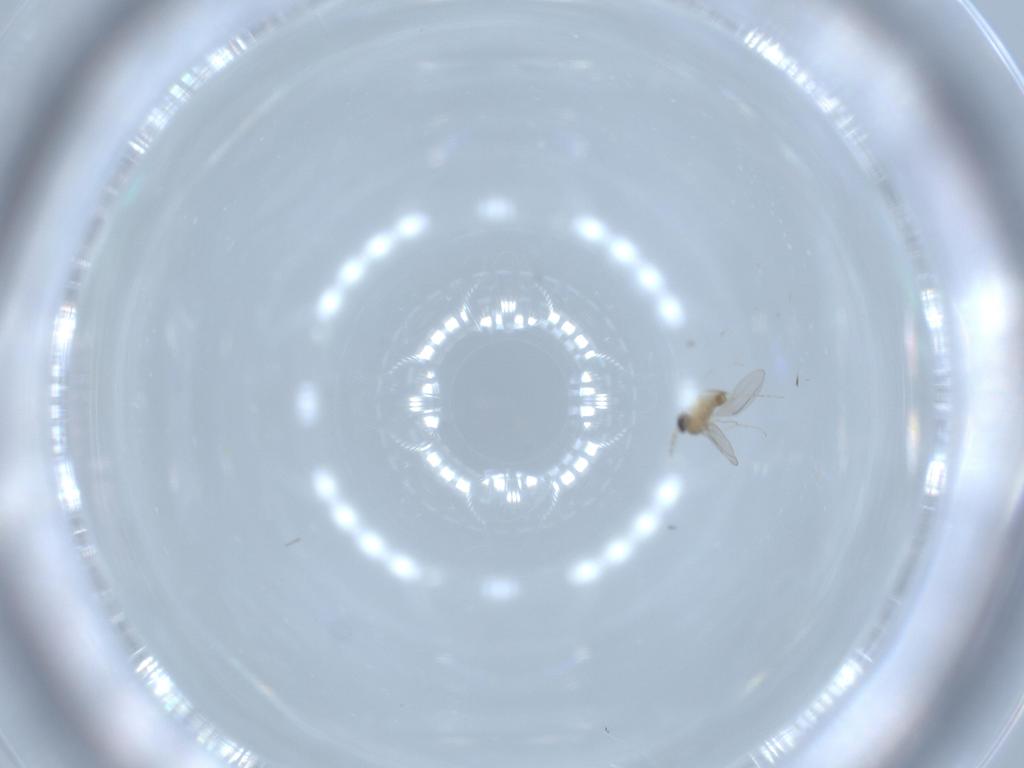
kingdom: Animalia
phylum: Arthropoda
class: Insecta
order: Diptera
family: Cecidomyiidae
